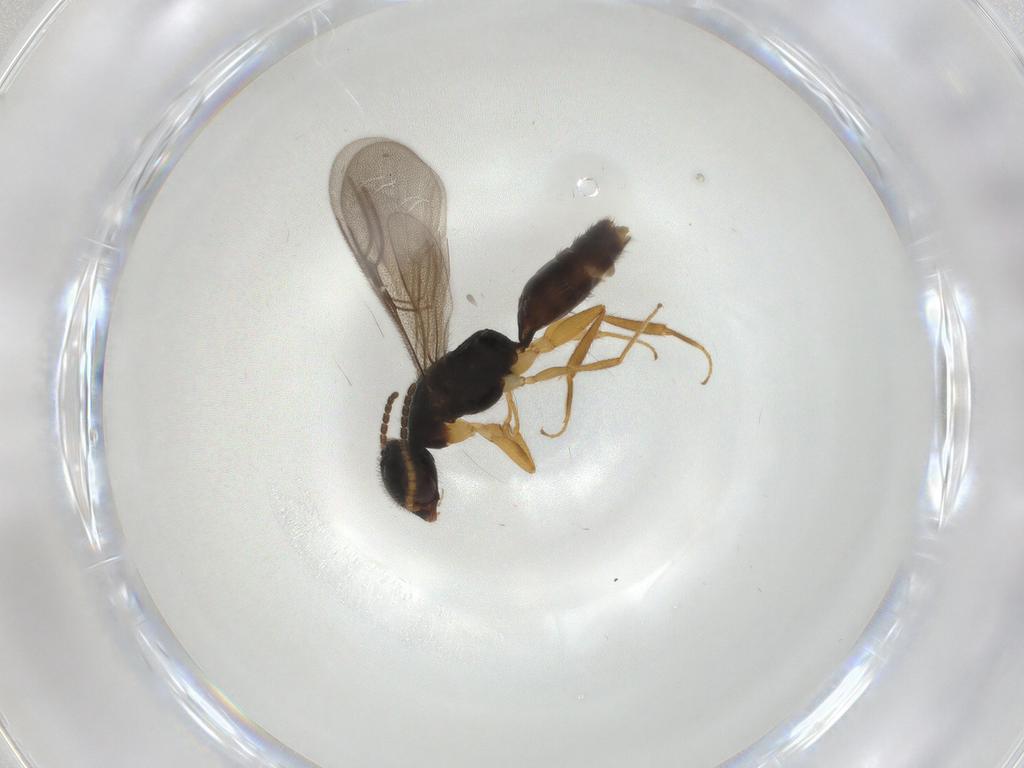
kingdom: Animalia
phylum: Arthropoda
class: Insecta
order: Hymenoptera
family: Bethylidae
